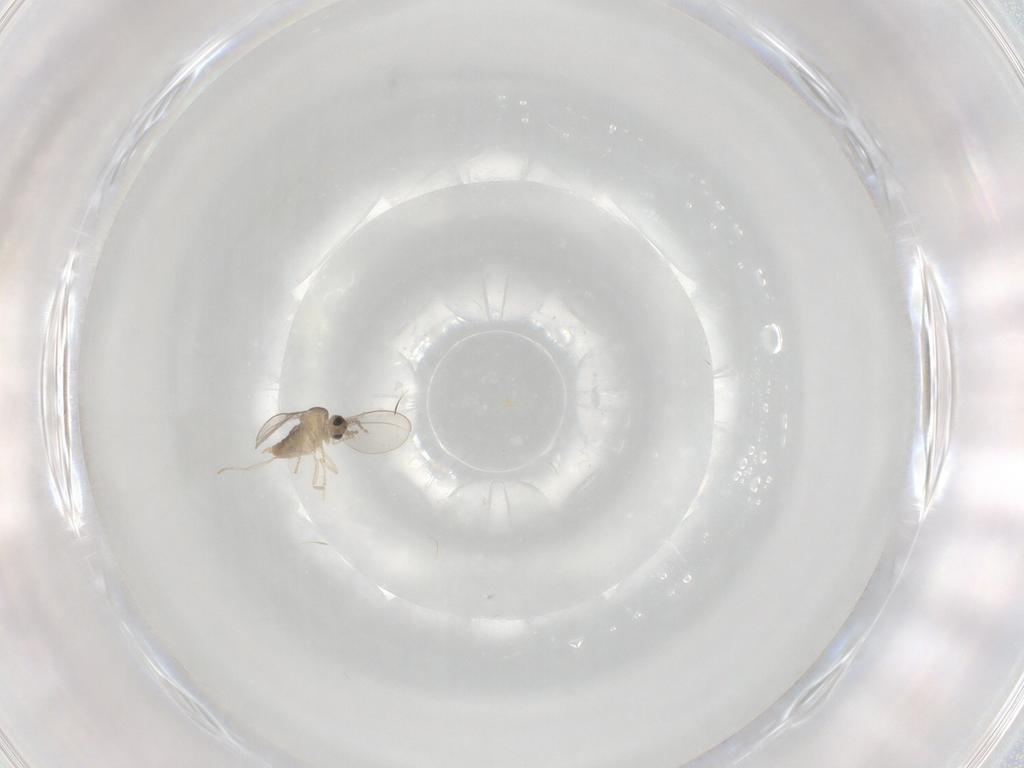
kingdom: Animalia
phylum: Arthropoda
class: Insecta
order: Diptera
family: Cecidomyiidae
